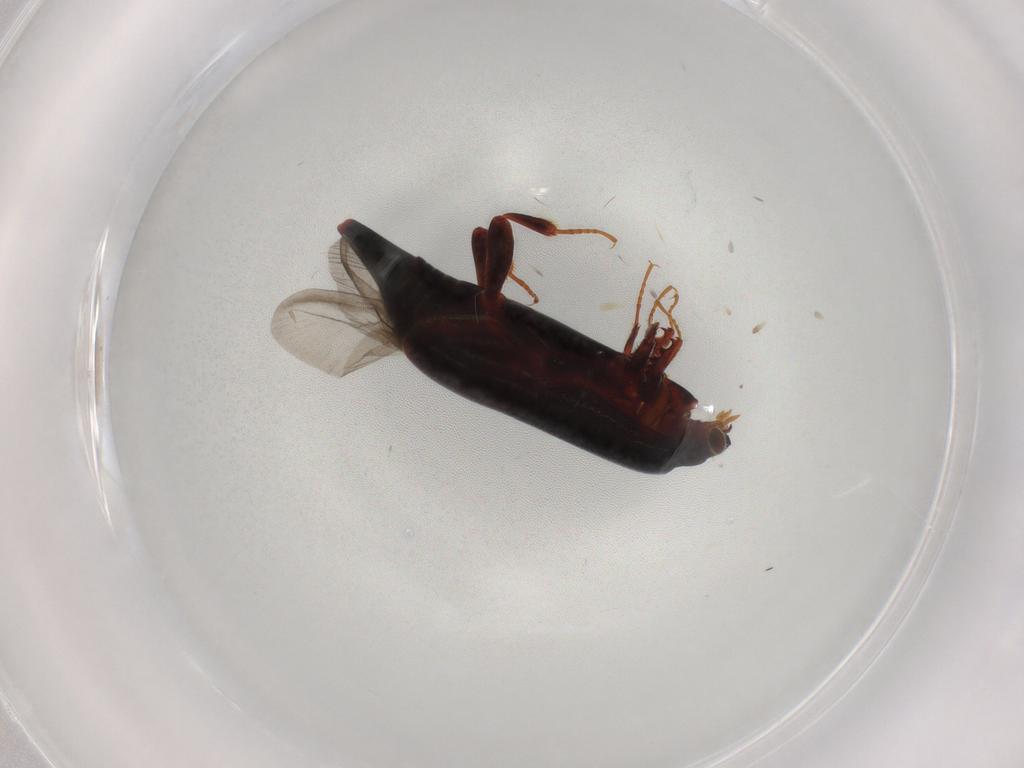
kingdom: Animalia
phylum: Arthropoda
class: Insecta
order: Coleoptera
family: Histeridae
